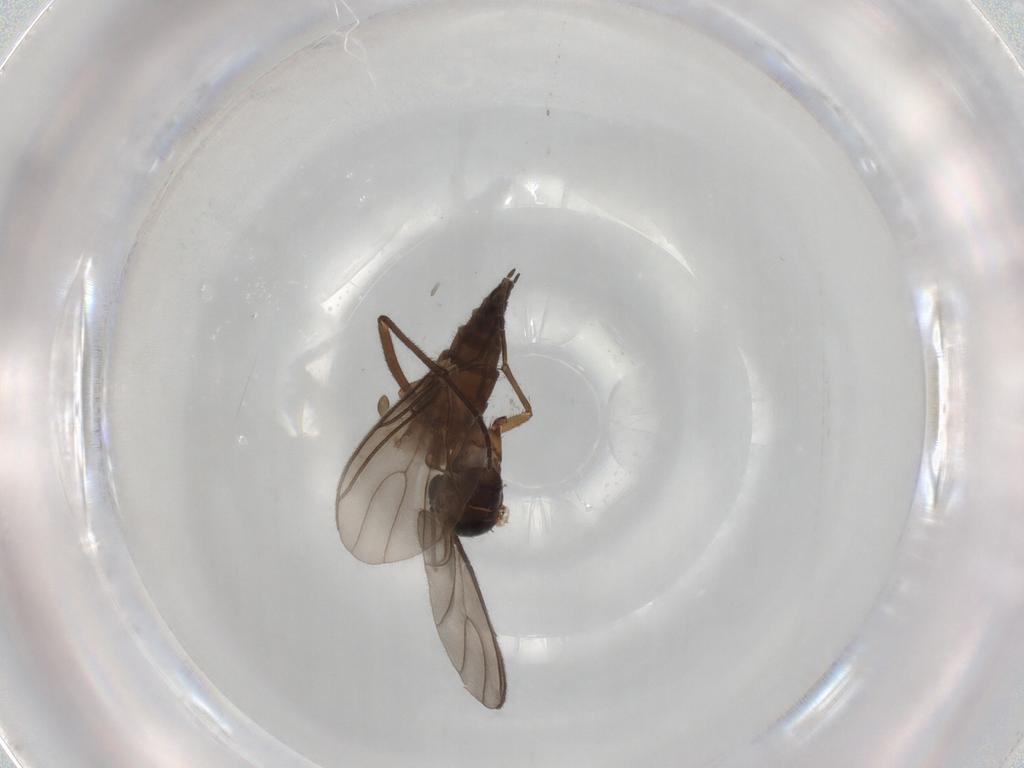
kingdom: Animalia
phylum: Arthropoda
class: Insecta
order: Diptera
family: Sciaridae
